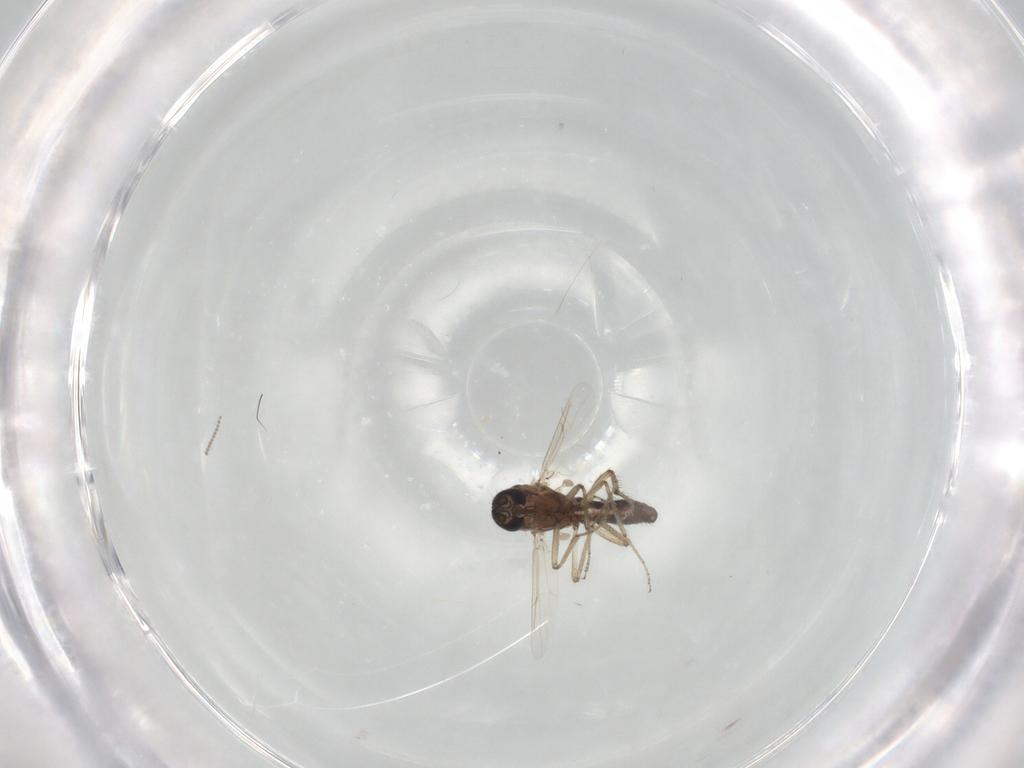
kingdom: Animalia
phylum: Arthropoda
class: Insecta
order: Diptera
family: Ceratopogonidae
